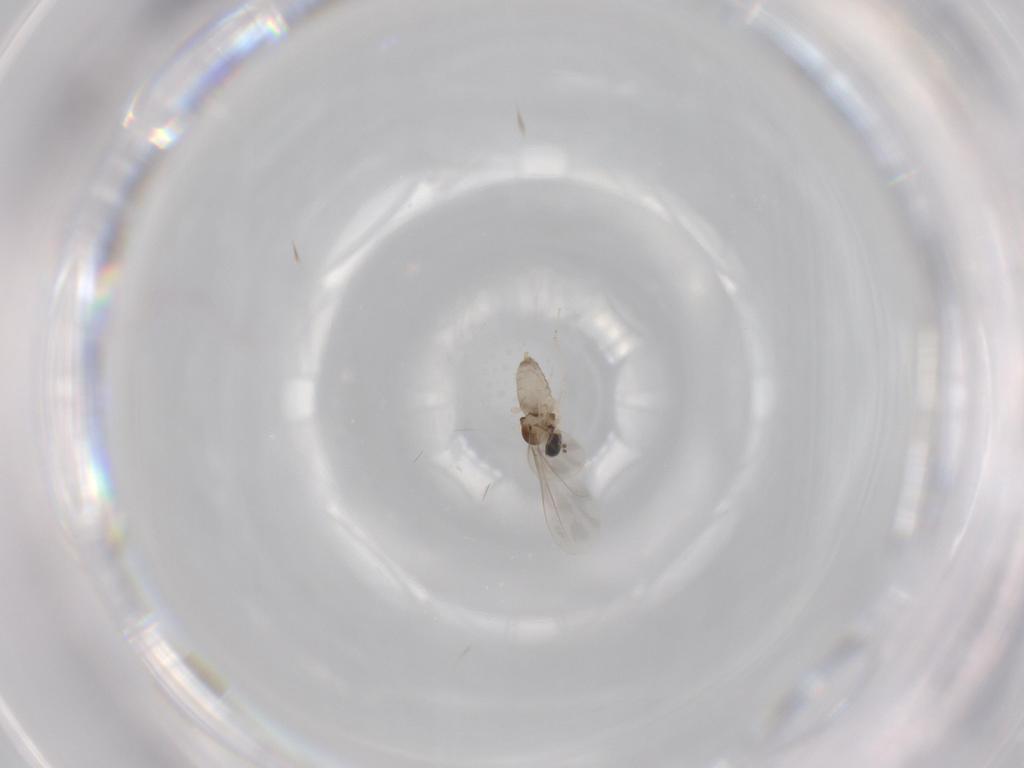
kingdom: Animalia
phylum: Arthropoda
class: Insecta
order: Diptera
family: Cecidomyiidae
